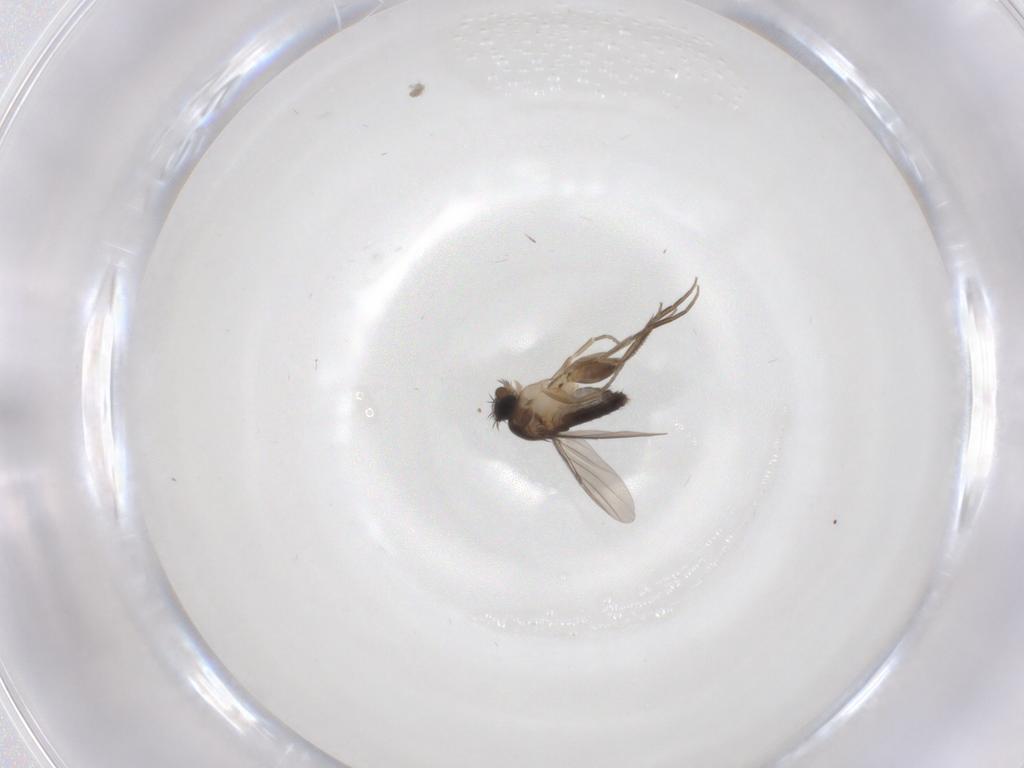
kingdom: Animalia
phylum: Arthropoda
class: Insecta
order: Diptera
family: Phoridae
